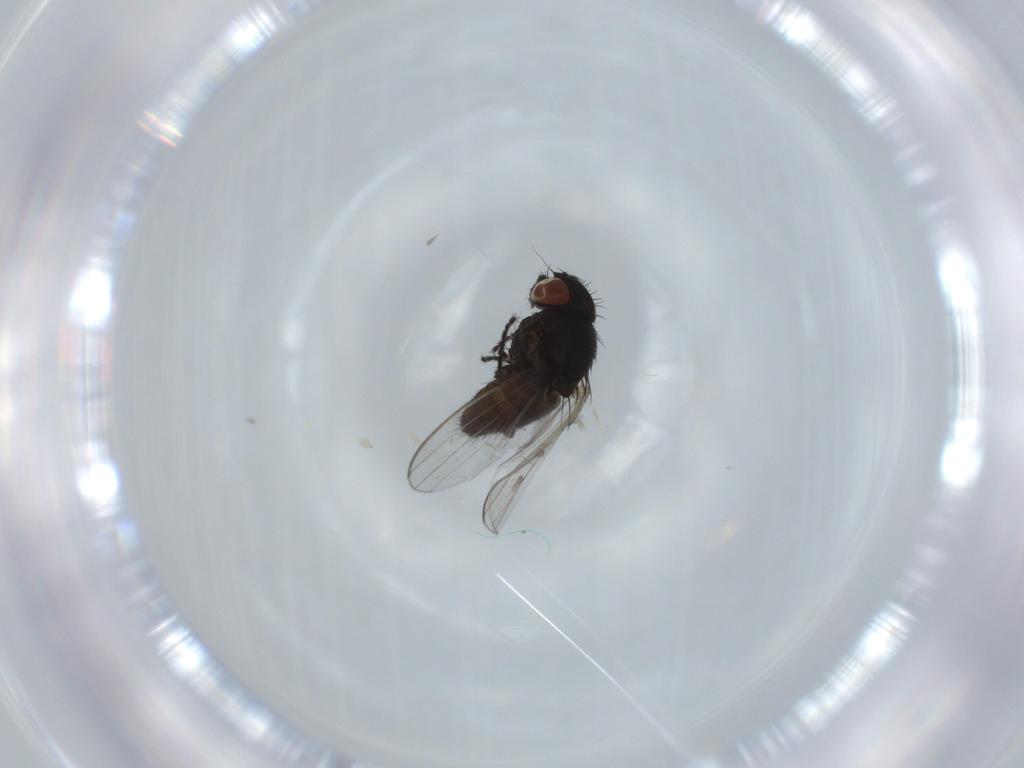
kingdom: Animalia
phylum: Arthropoda
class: Insecta
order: Diptera
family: Milichiidae
